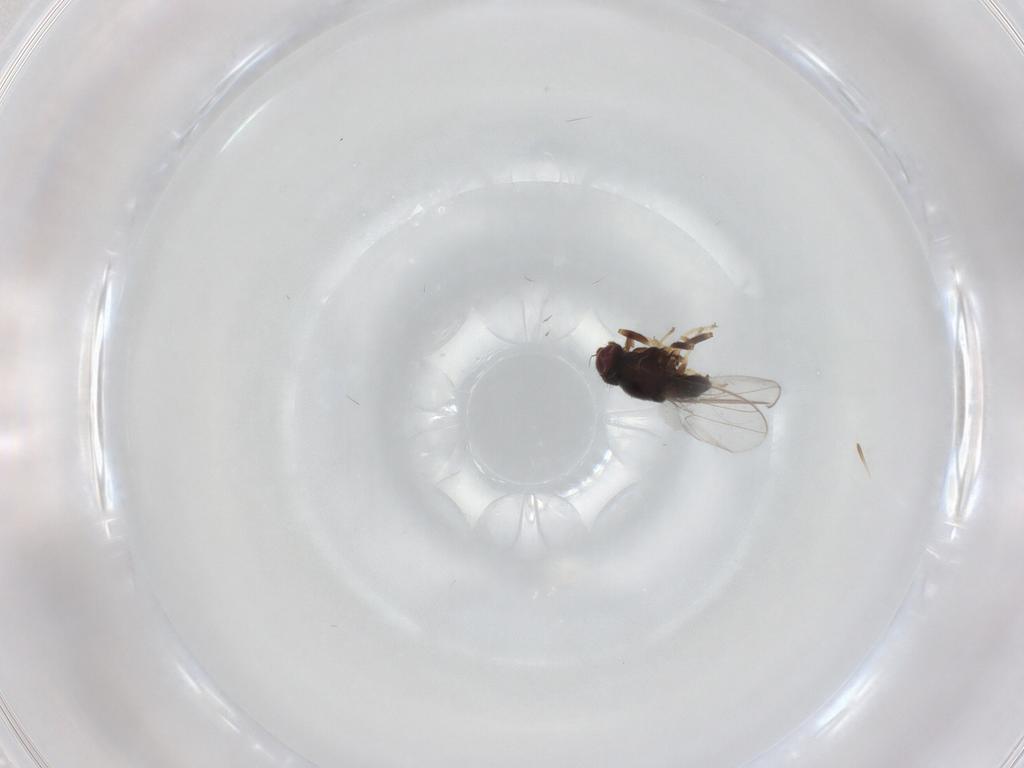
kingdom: Animalia
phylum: Arthropoda
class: Insecta
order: Diptera
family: Chloropidae
